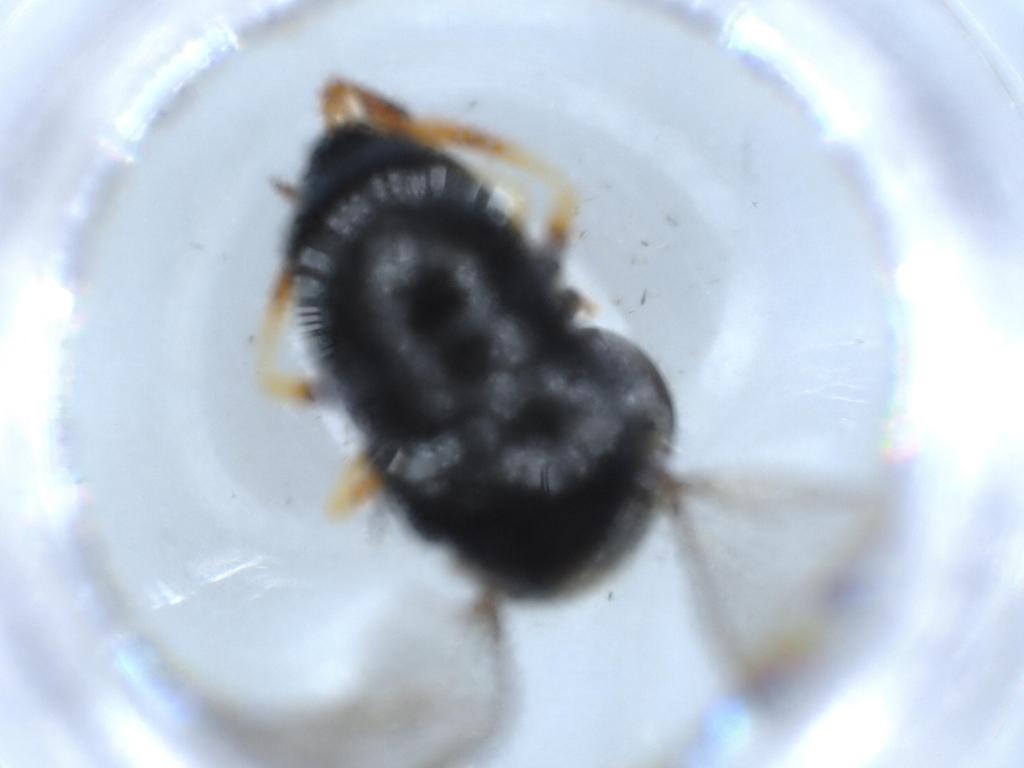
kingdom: Animalia
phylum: Arthropoda
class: Insecta
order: Diptera
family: Syrphidae
